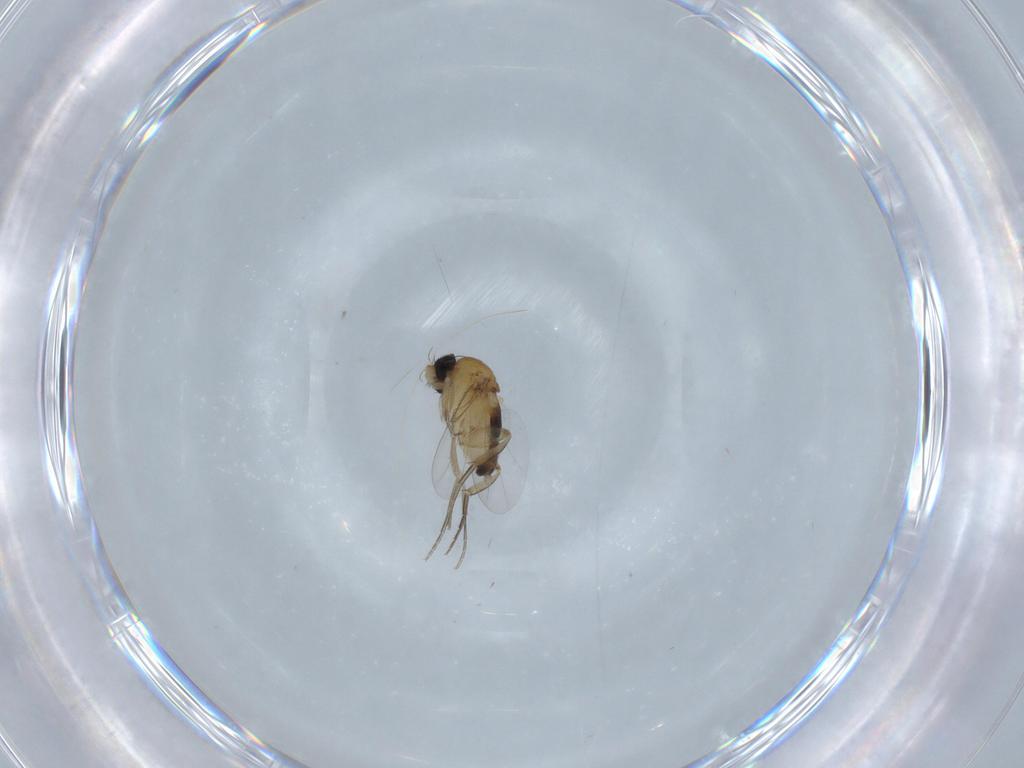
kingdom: Animalia
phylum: Arthropoda
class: Insecta
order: Diptera
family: Phoridae
